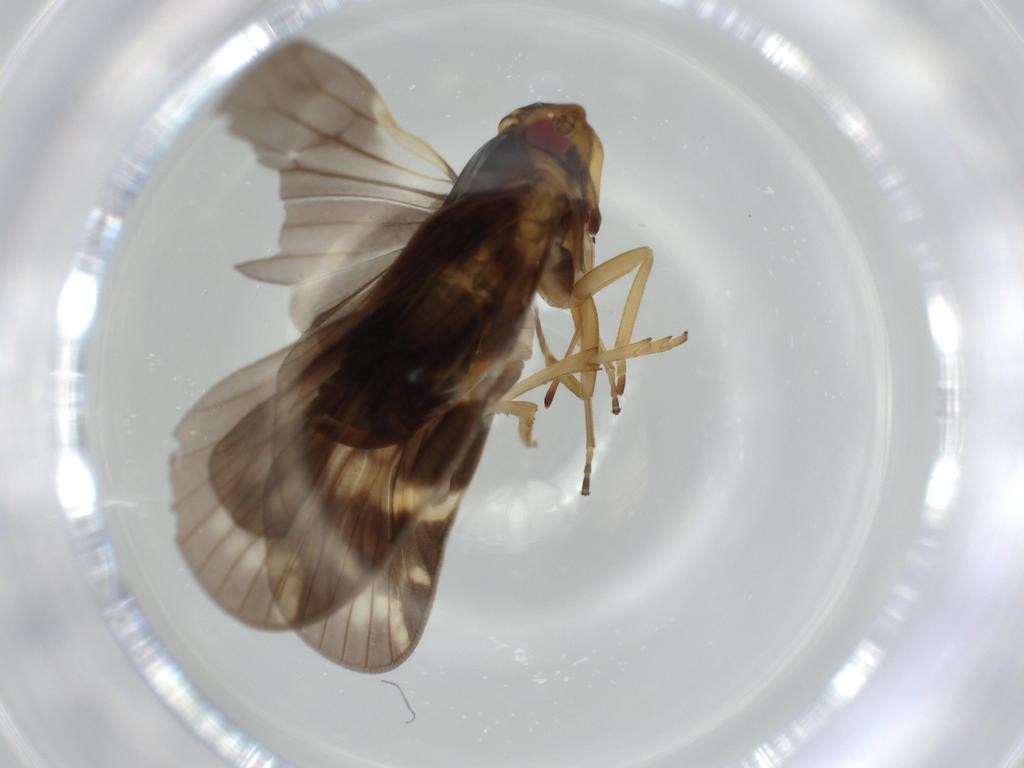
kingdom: Animalia
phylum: Arthropoda
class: Insecta
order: Hemiptera
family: Cixiidae
